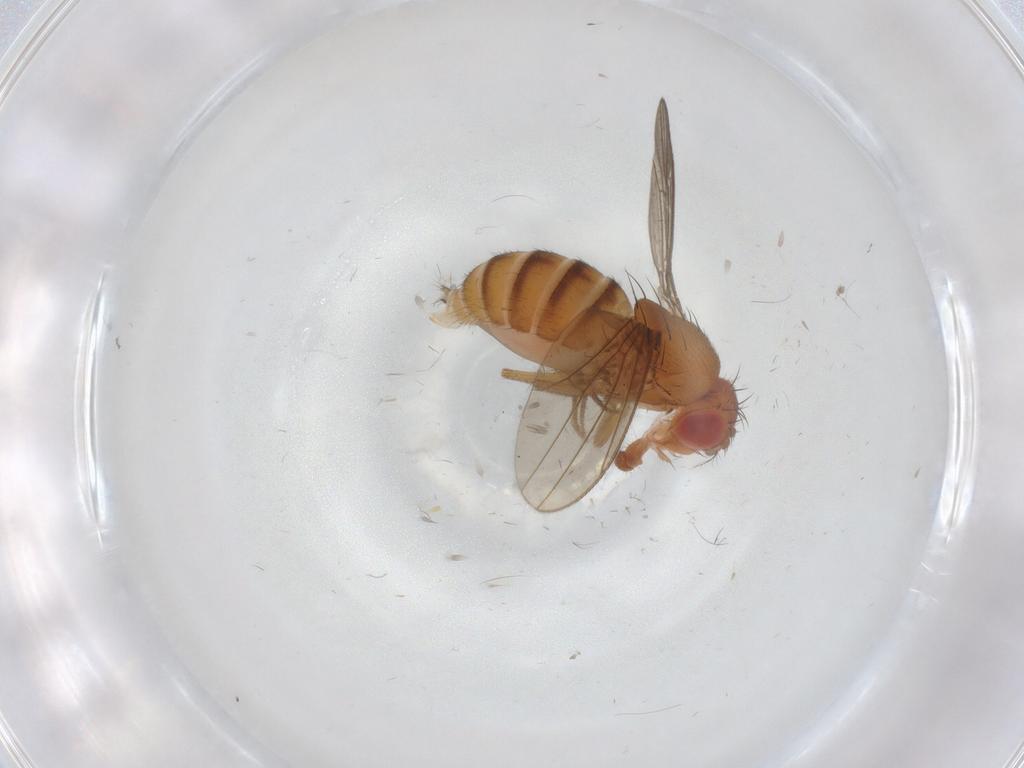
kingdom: Animalia
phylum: Arthropoda
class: Insecta
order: Diptera
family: Drosophilidae
